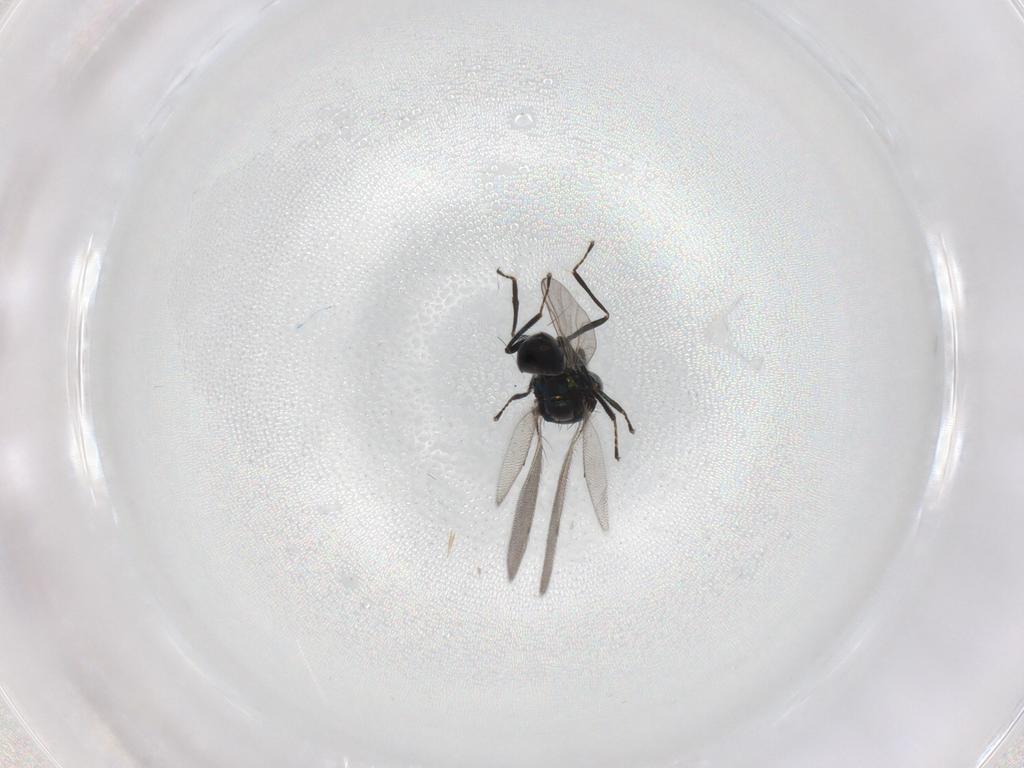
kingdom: Animalia
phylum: Arthropoda
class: Insecta
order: Hymenoptera
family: Eulophidae
